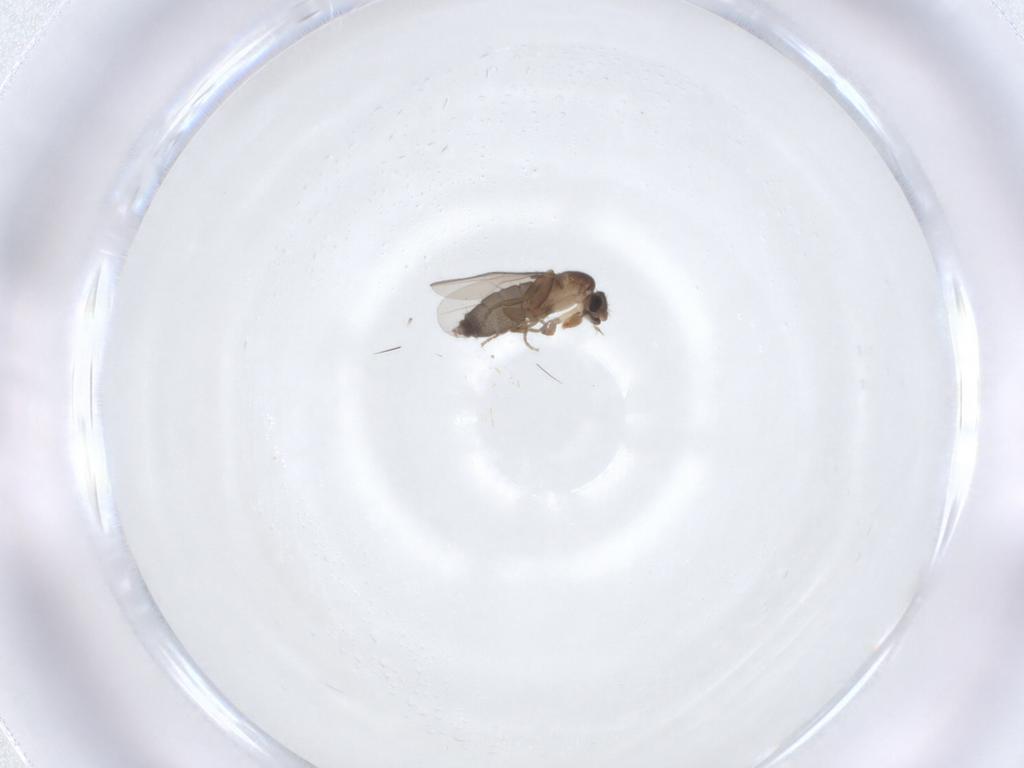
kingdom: Animalia
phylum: Arthropoda
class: Insecta
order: Diptera
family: Phoridae
